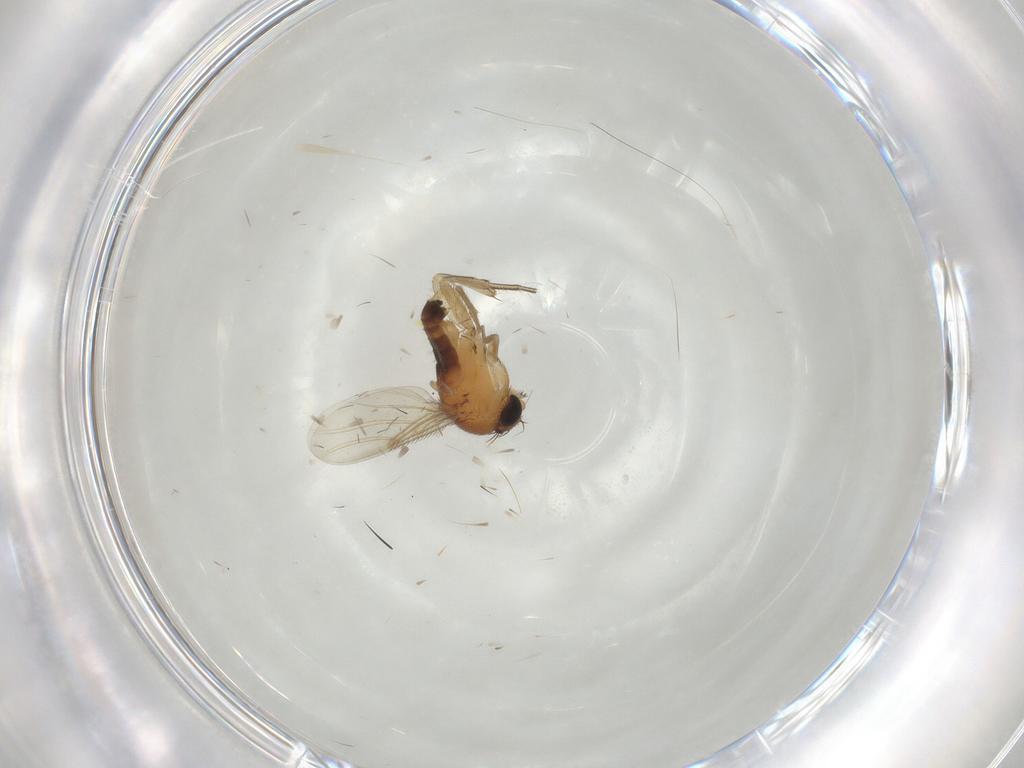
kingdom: Animalia
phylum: Arthropoda
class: Insecta
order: Diptera
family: Phoridae
